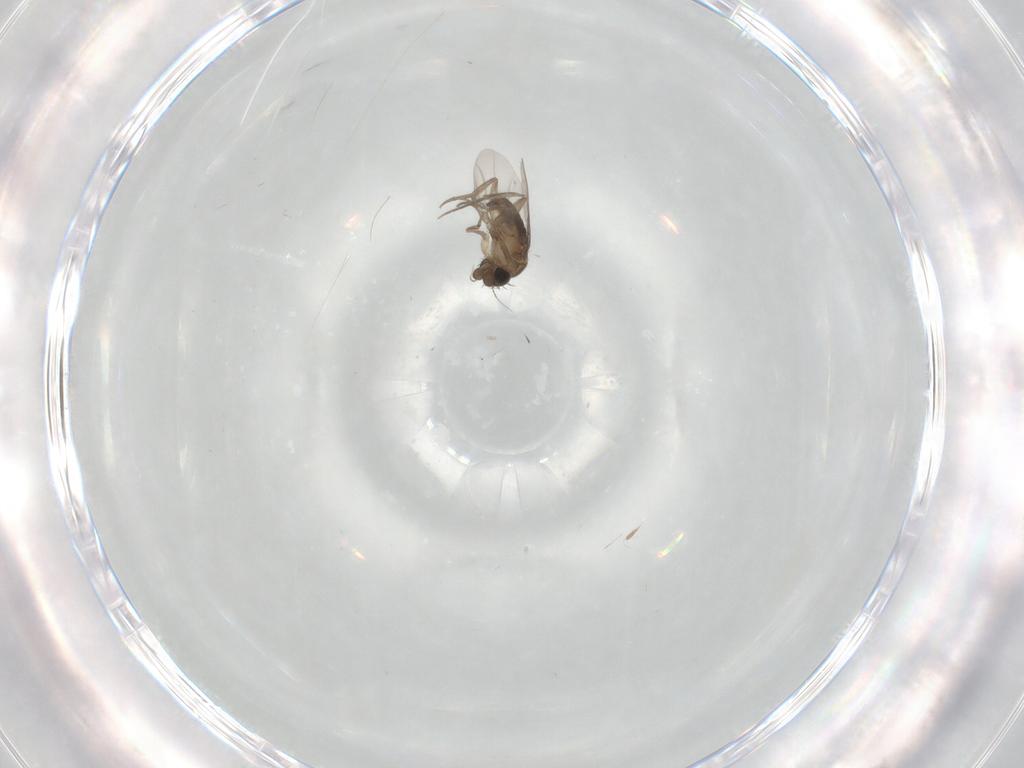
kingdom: Animalia
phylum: Arthropoda
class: Insecta
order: Diptera
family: Phoridae
